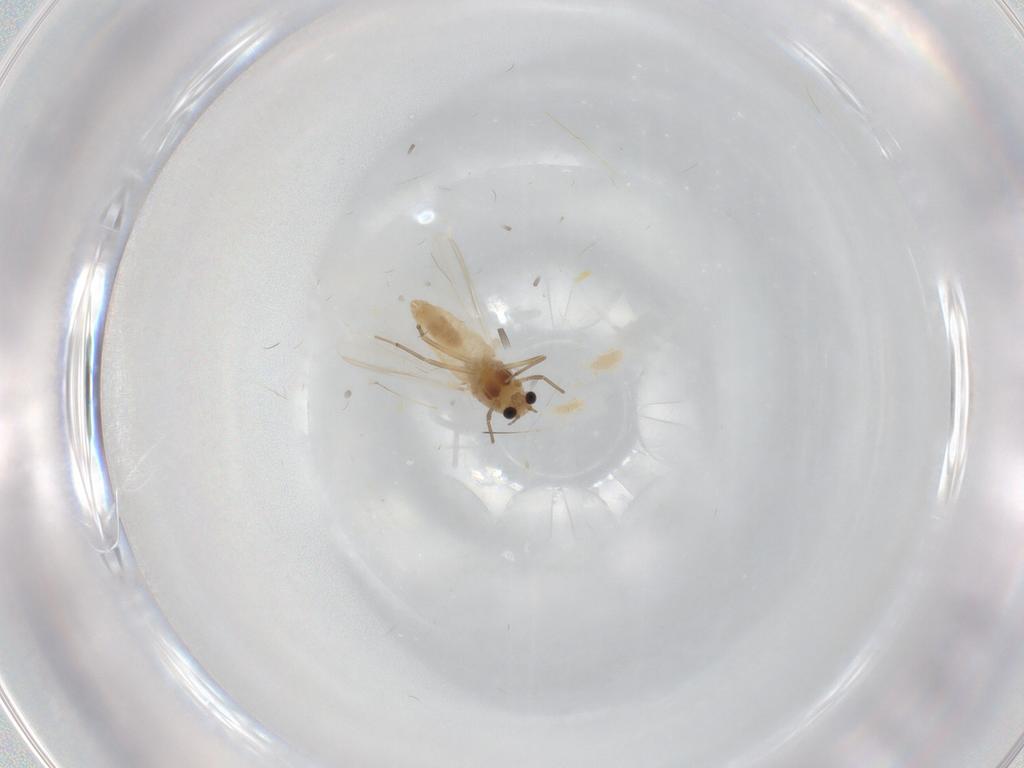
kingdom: Animalia
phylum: Arthropoda
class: Insecta
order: Diptera
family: Chironomidae
